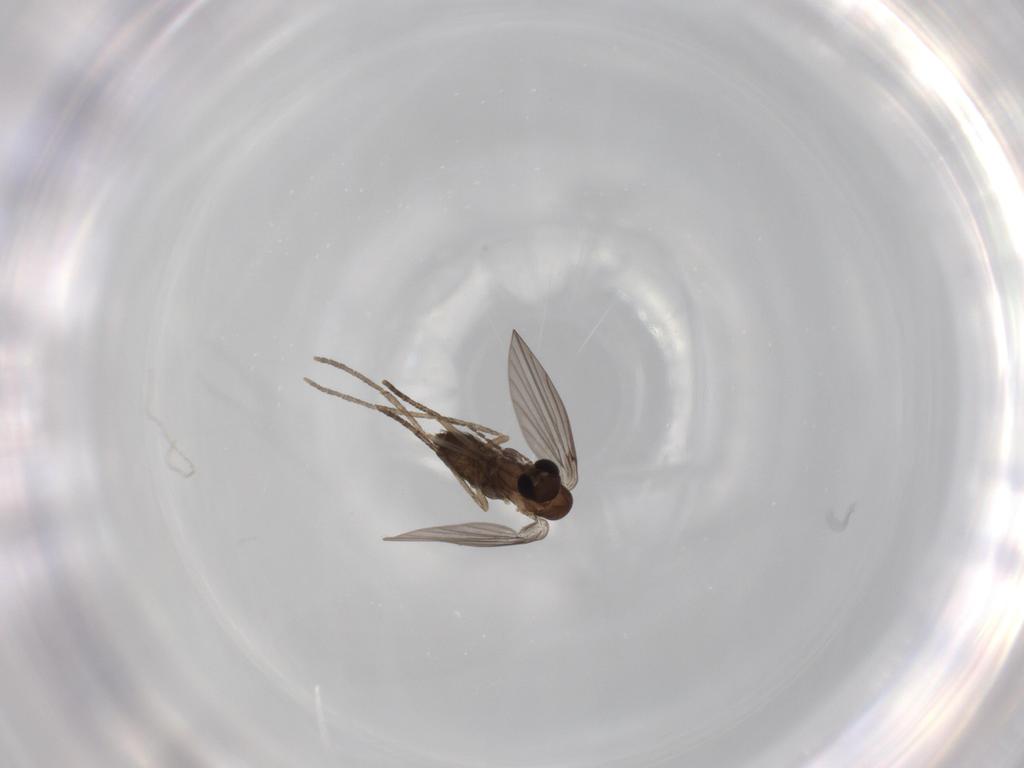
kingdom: Animalia
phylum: Arthropoda
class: Insecta
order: Diptera
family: Psychodidae
